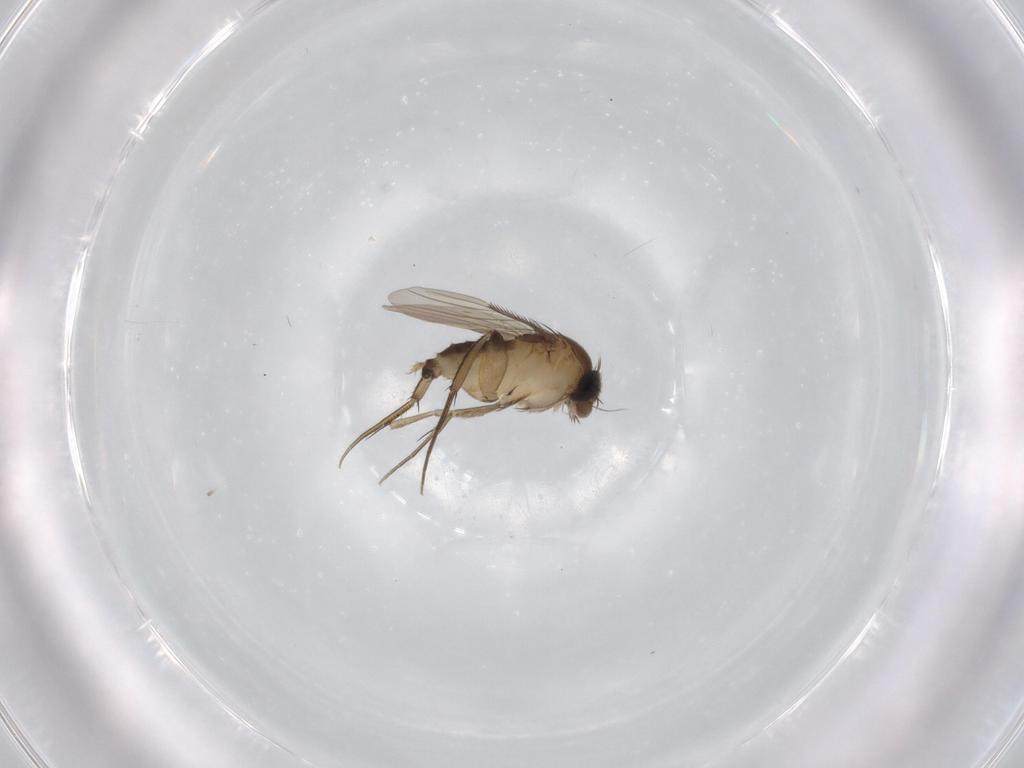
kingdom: Animalia
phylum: Arthropoda
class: Insecta
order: Diptera
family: Phoridae
